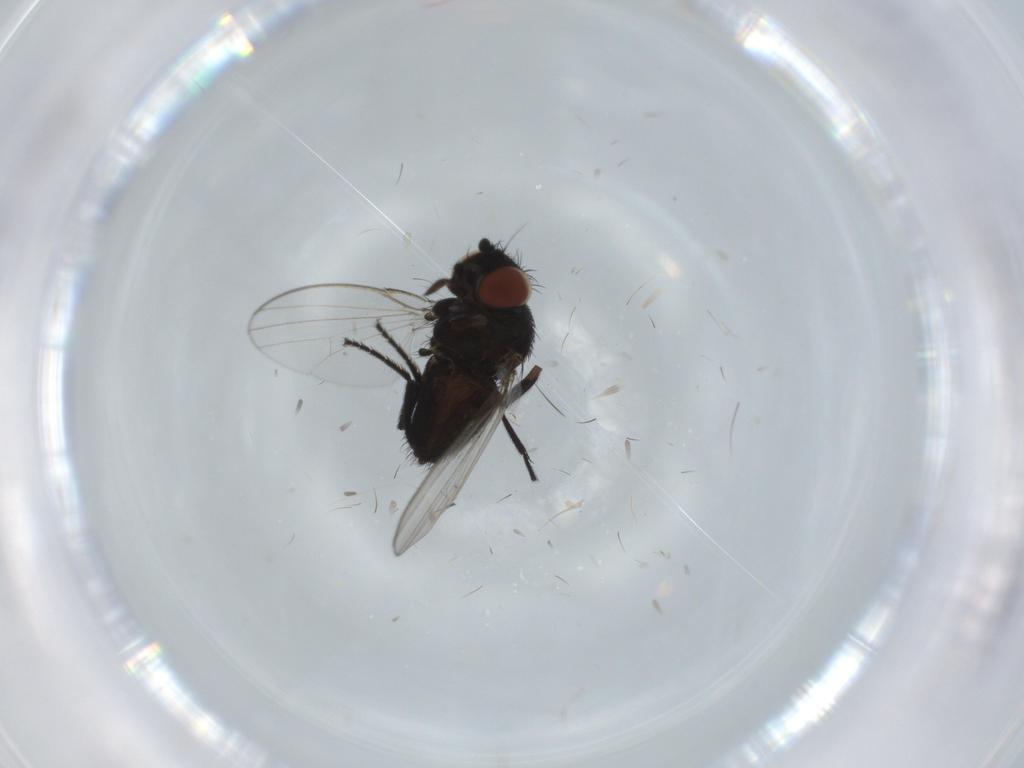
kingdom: Animalia
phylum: Arthropoda
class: Insecta
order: Diptera
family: Milichiidae
